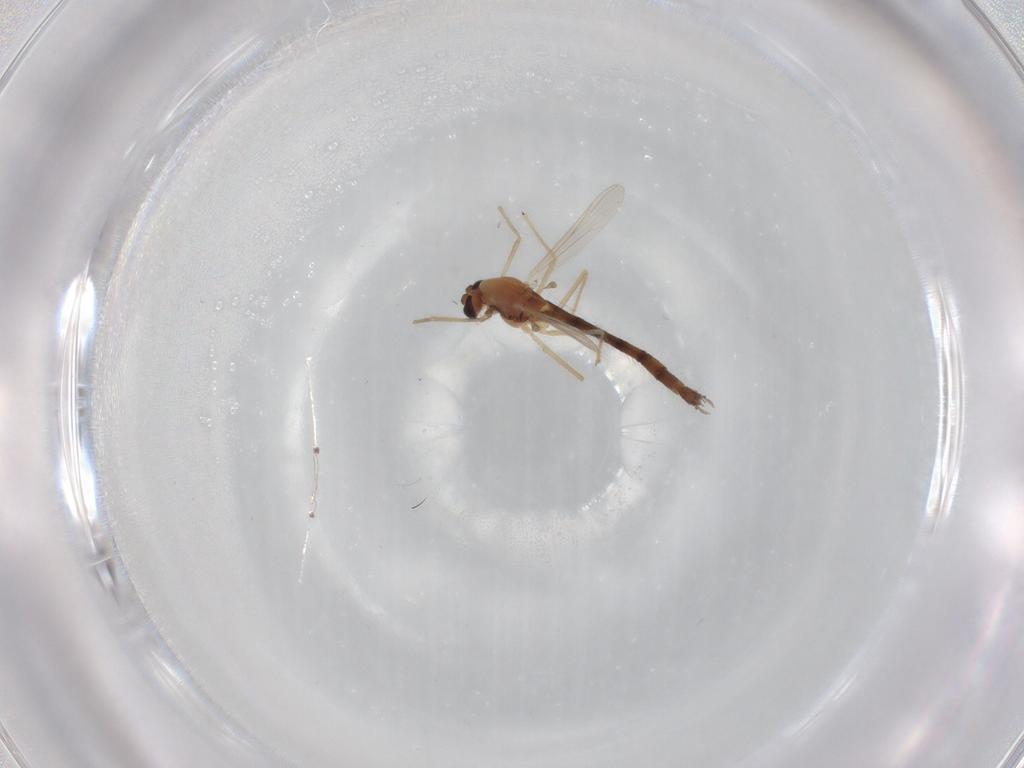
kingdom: Animalia
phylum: Arthropoda
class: Insecta
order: Diptera
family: Chironomidae
